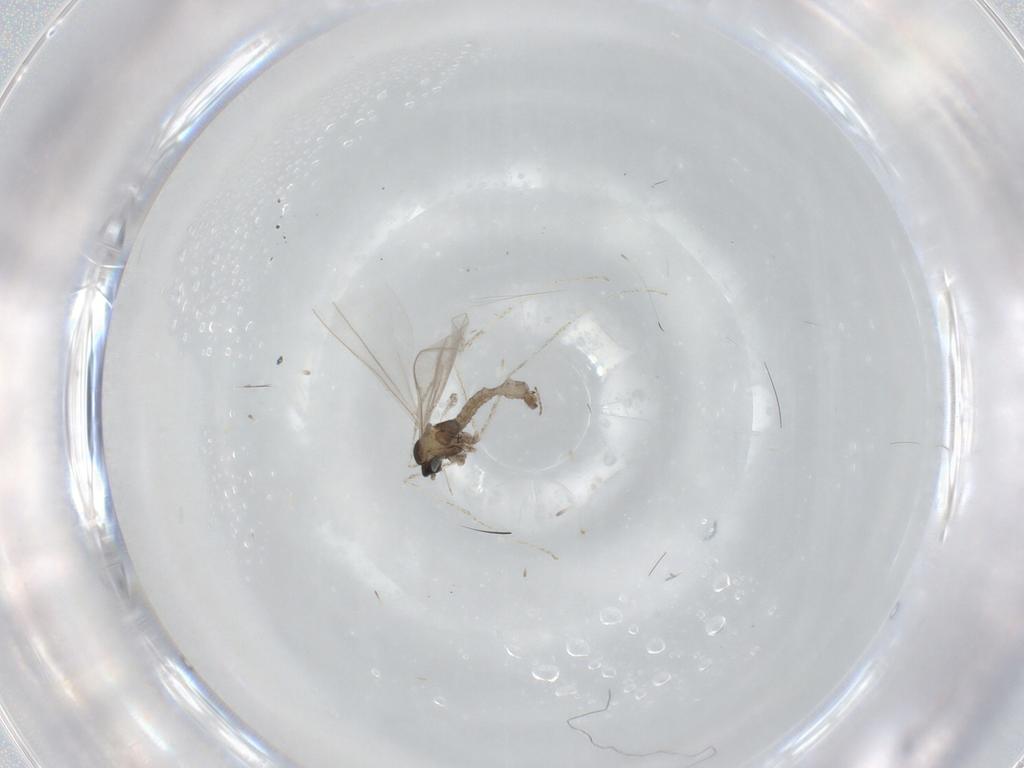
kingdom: Animalia
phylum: Arthropoda
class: Insecta
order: Diptera
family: Cecidomyiidae
